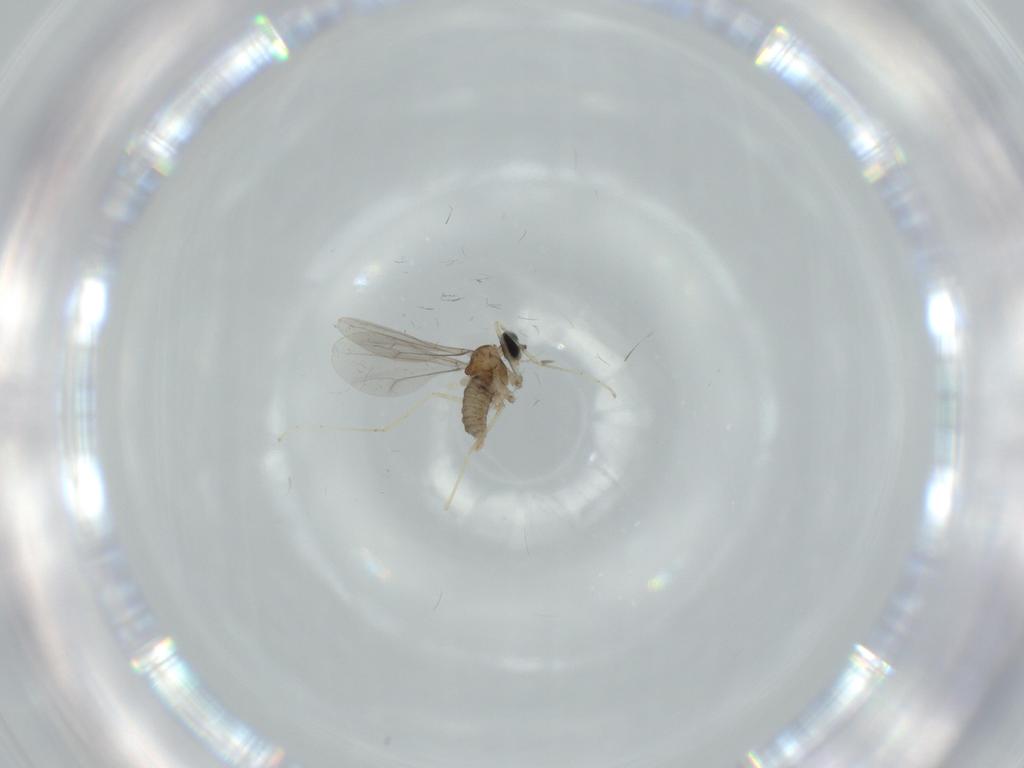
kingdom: Animalia
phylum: Arthropoda
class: Insecta
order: Diptera
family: Cecidomyiidae
